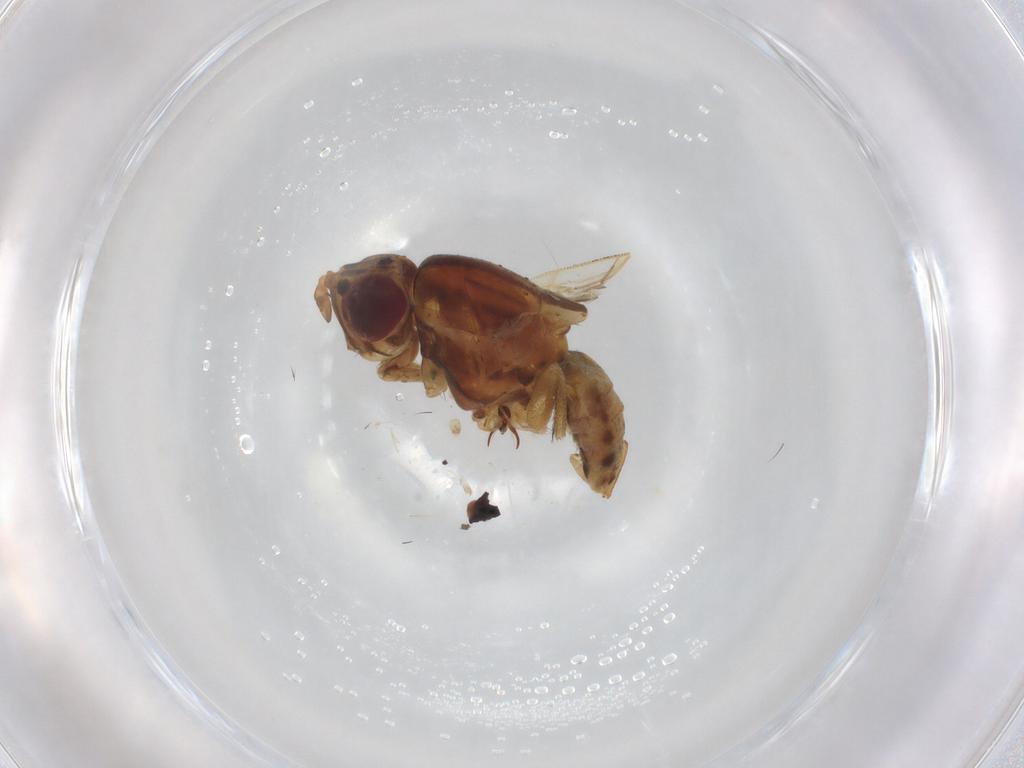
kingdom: Animalia
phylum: Arthropoda
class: Insecta
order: Diptera
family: Lauxaniidae
